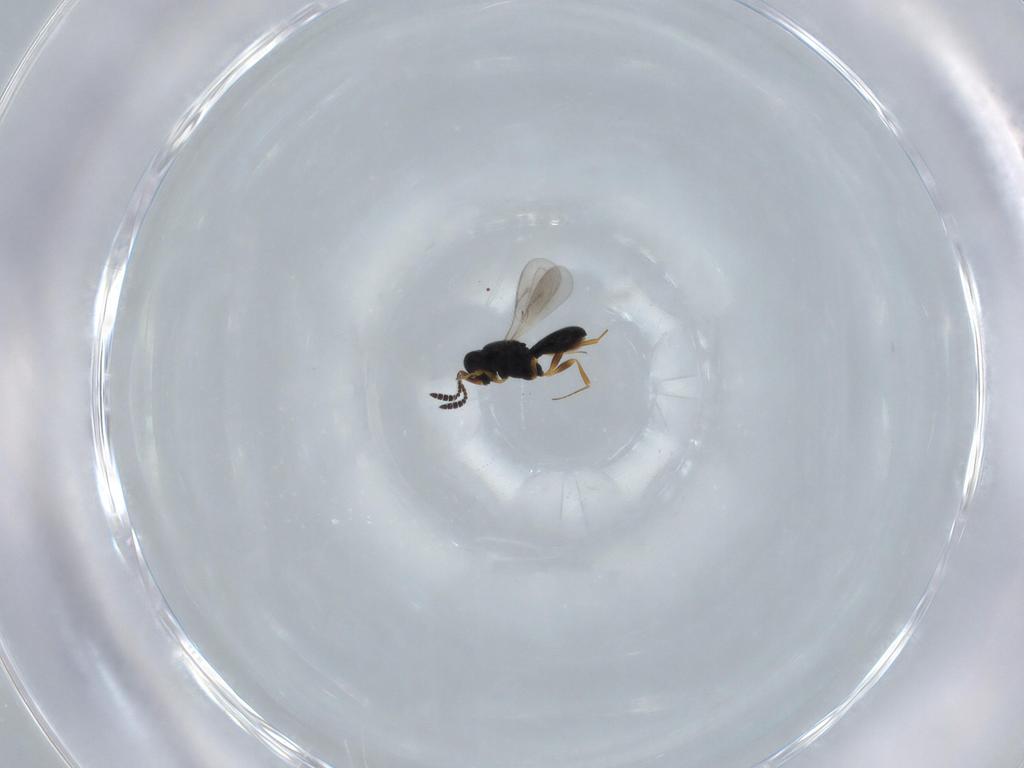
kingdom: Animalia
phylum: Arthropoda
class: Insecta
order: Hymenoptera
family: Scelionidae
